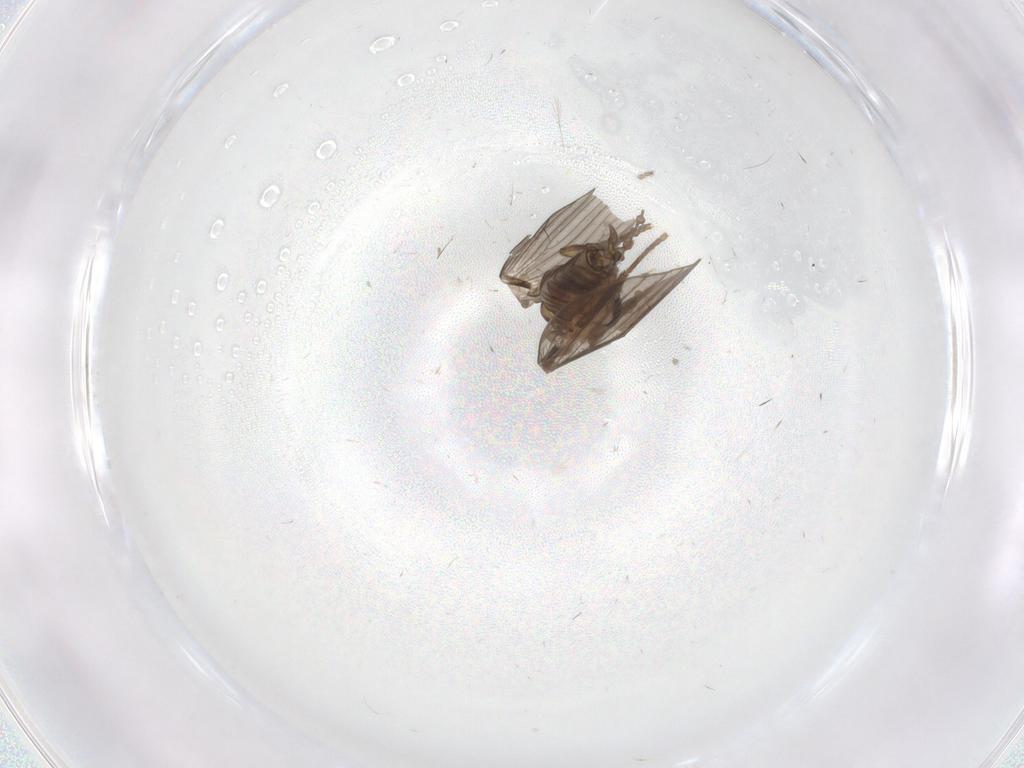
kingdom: Animalia
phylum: Arthropoda
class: Insecta
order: Diptera
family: Psychodidae
